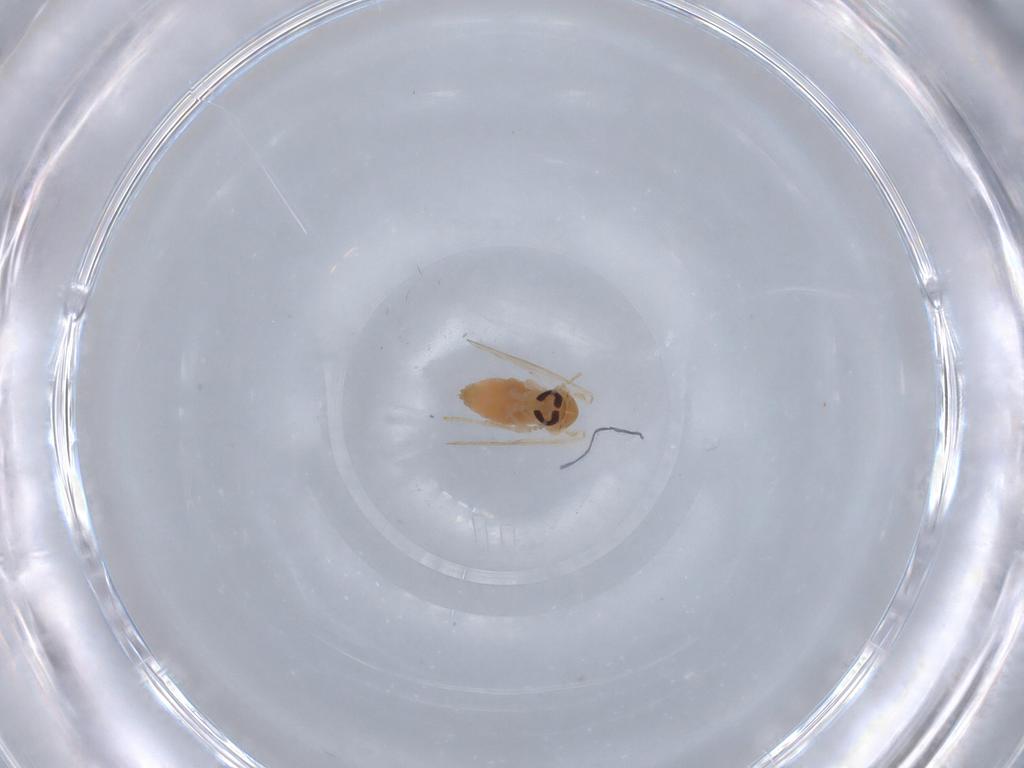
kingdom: Animalia
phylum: Arthropoda
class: Insecta
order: Diptera
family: Psychodidae
